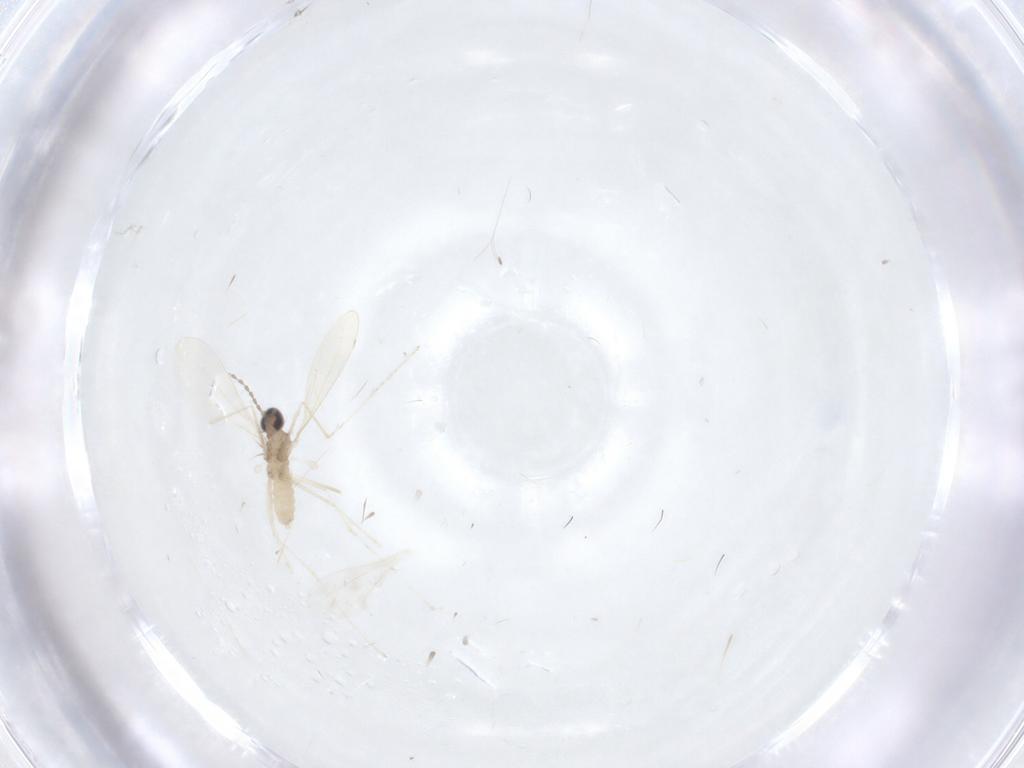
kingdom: Animalia
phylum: Arthropoda
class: Insecta
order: Diptera
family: Cecidomyiidae
